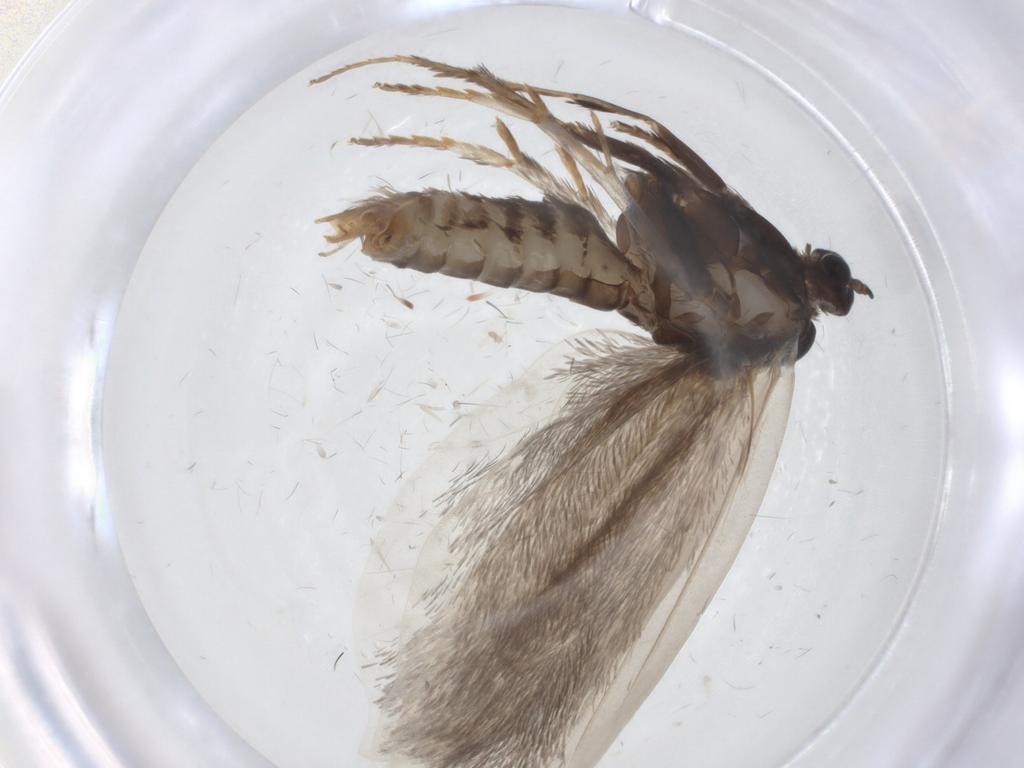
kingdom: Animalia
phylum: Arthropoda
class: Insecta
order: Lepidoptera
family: Psychidae
